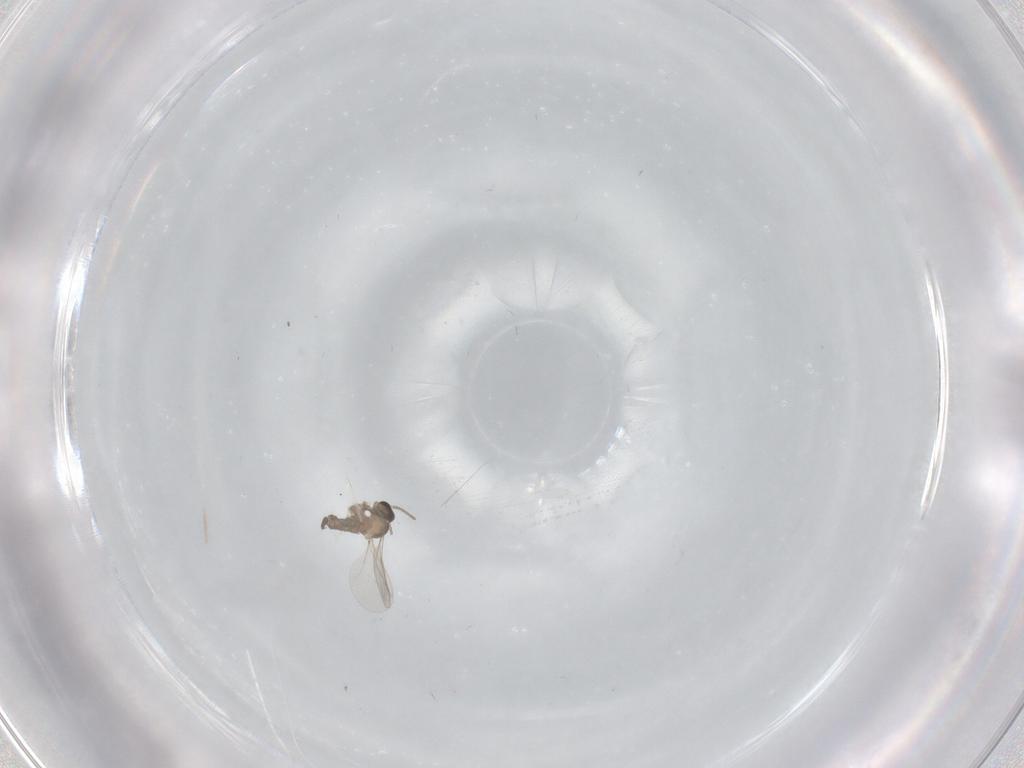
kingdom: Animalia
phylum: Arthropoda
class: Insecta
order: Diptera
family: Cecidomyiidae
